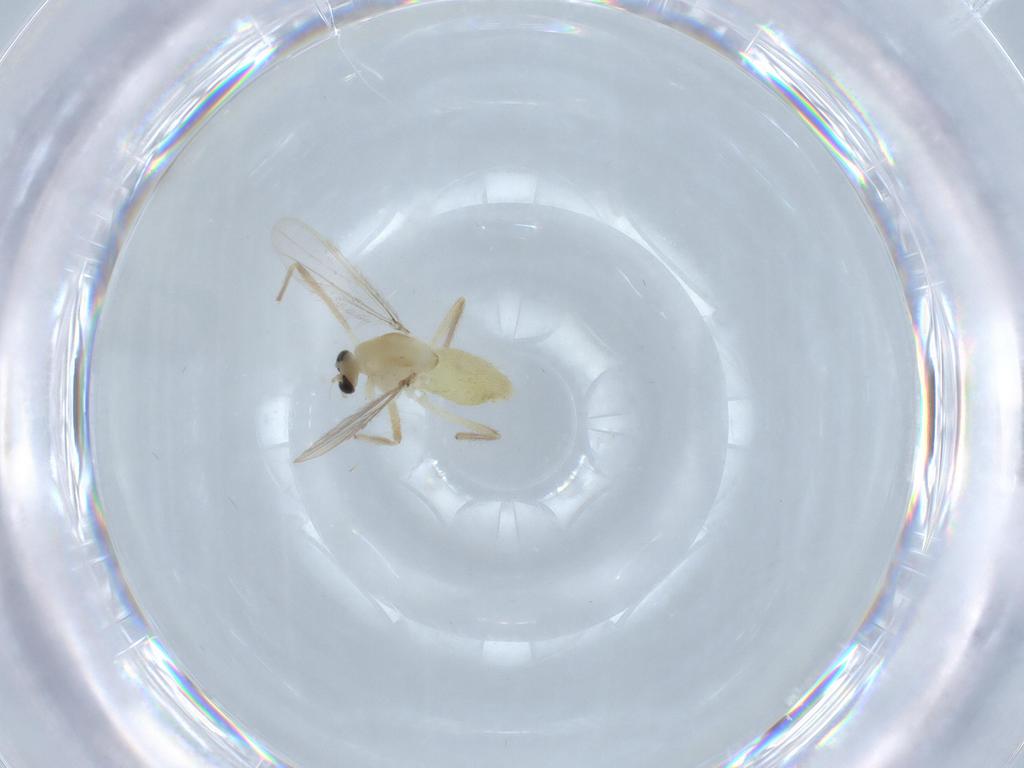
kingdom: Animalia
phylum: Arthropoda
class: Insecta
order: Diptera
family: Chironomidae
